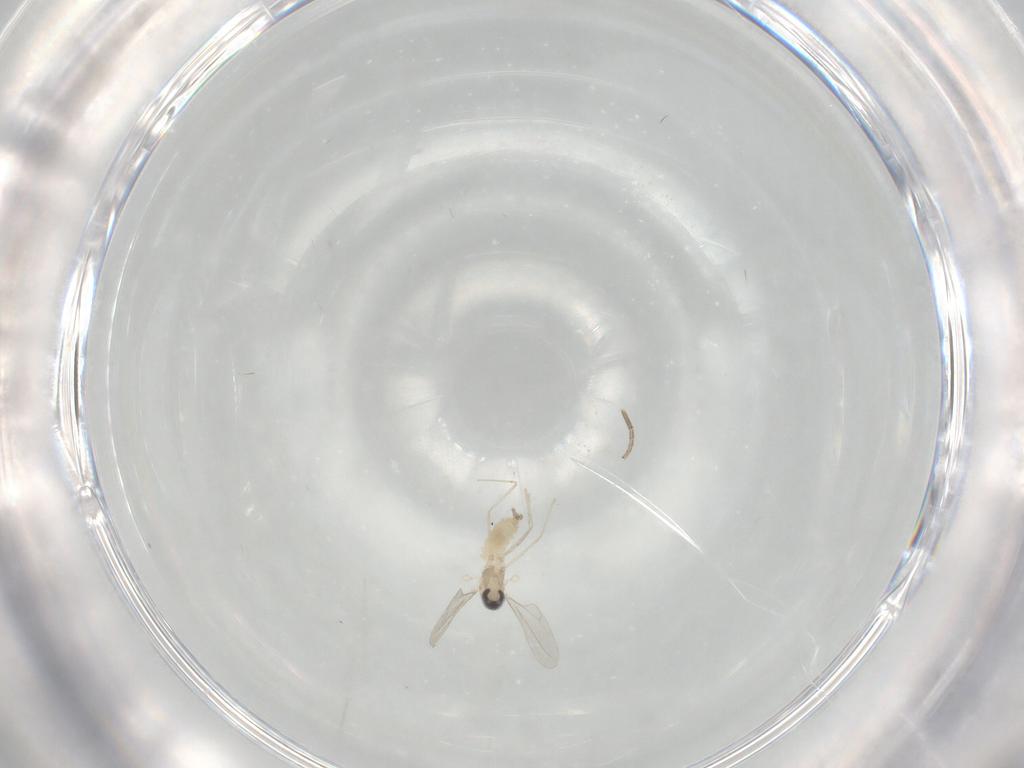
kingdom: Animalia
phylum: Arthropoda
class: Insecta
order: Diptera
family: Cecidomyiidae
